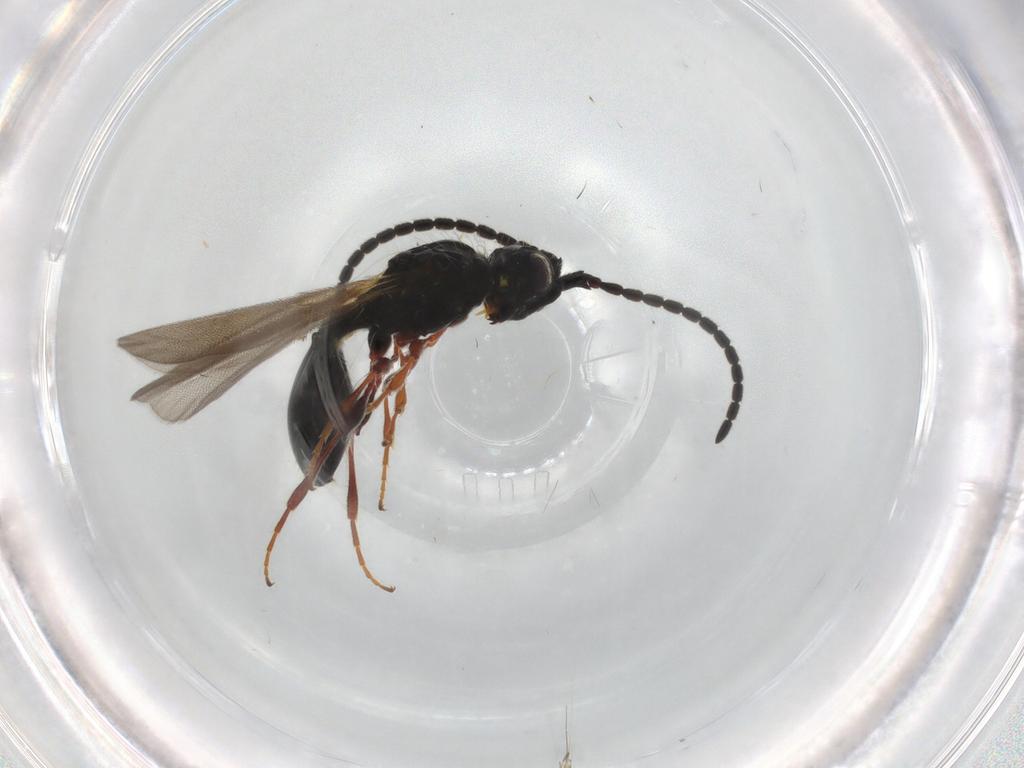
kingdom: Animalia
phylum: Arthropoda
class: Insecta
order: Hymenoptera
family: Diapriidae
